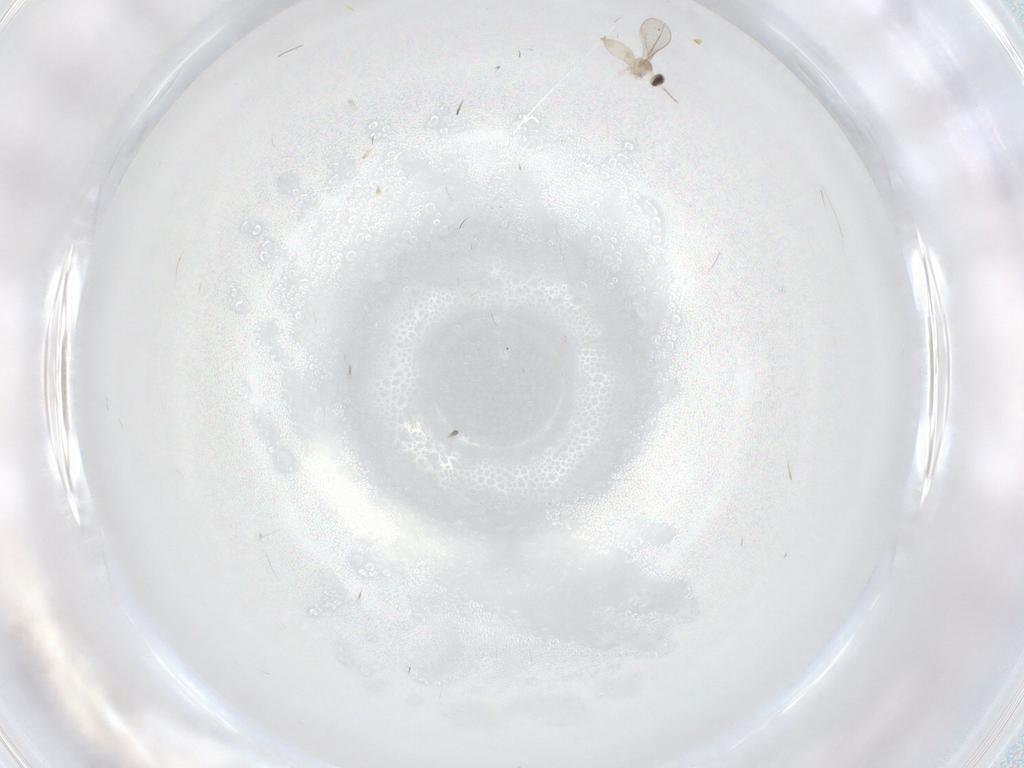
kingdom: Animalia
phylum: Arthropoda
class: Insecta
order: Diptera
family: Cecidomyiidae
